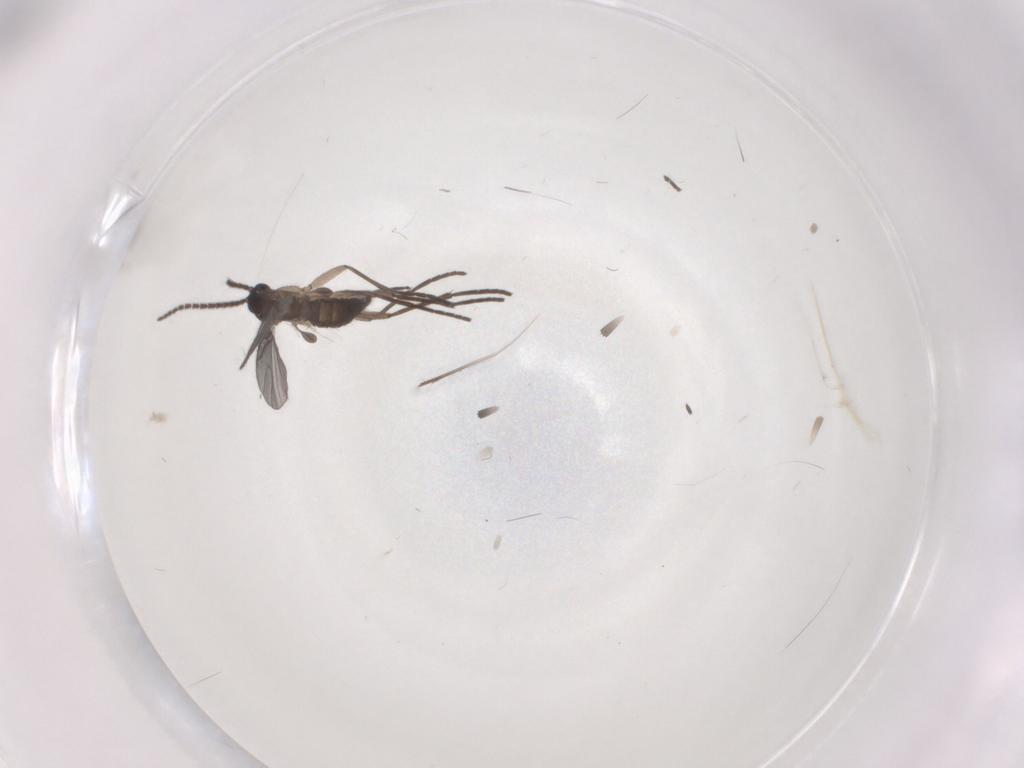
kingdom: Animalia
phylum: Arthropoda
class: Insecta
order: Diptera
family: Sciaridae
